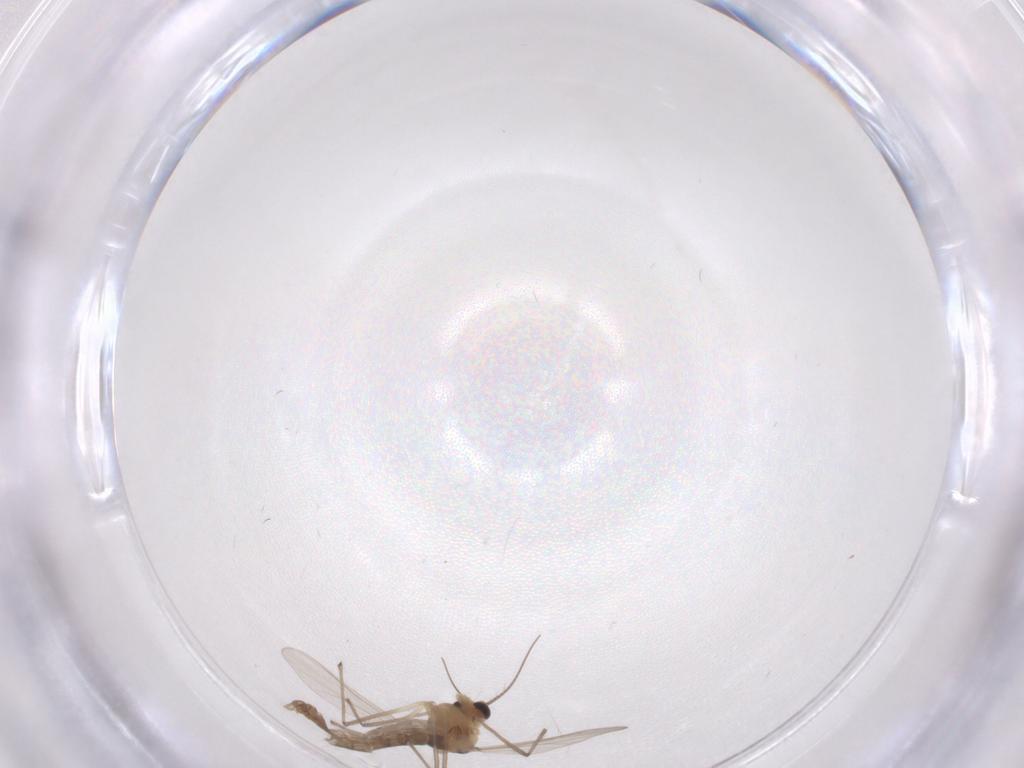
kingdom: Animalia
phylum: Arthropoda
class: Insecta
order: Diptera
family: Chironomidae
